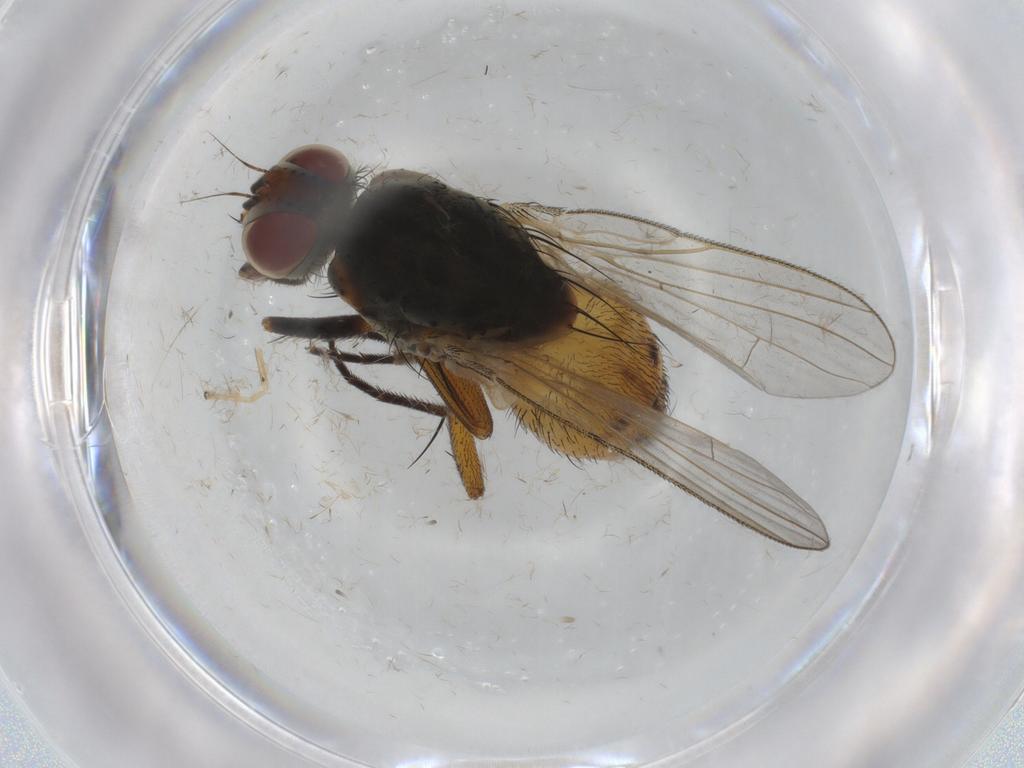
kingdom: Animalia
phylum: Arthropoda
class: Insecta
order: Diptera
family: Muscidae
